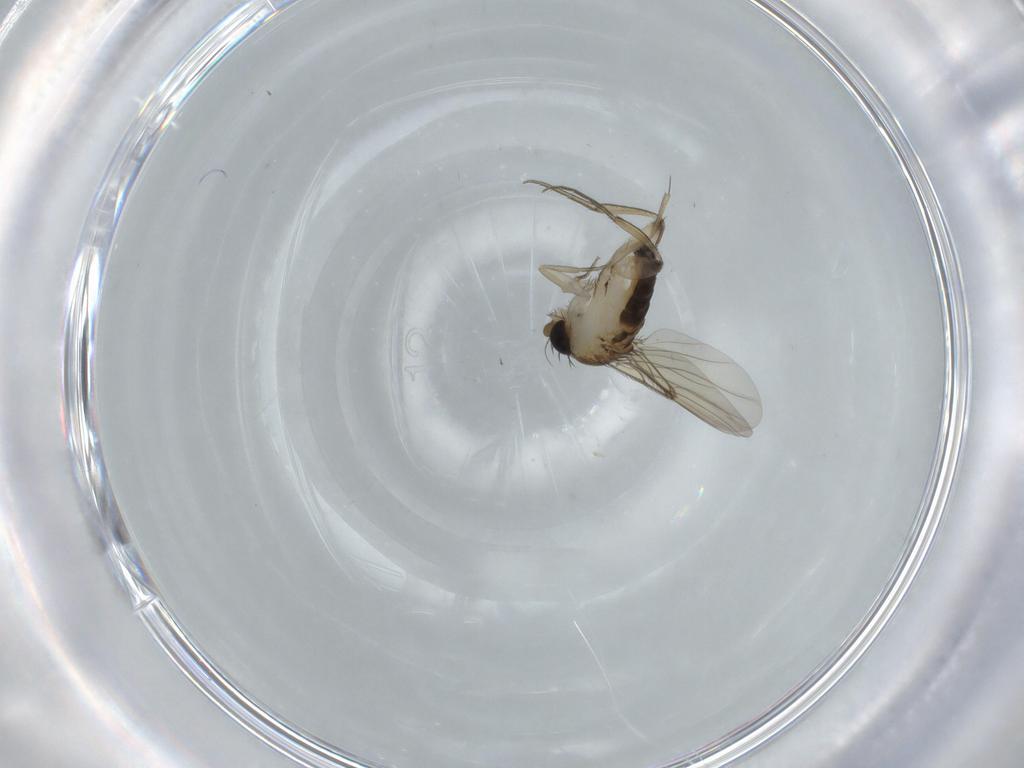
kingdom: Animalia
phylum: Arthropoda
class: Insecta
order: Diptera
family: Phoridae
